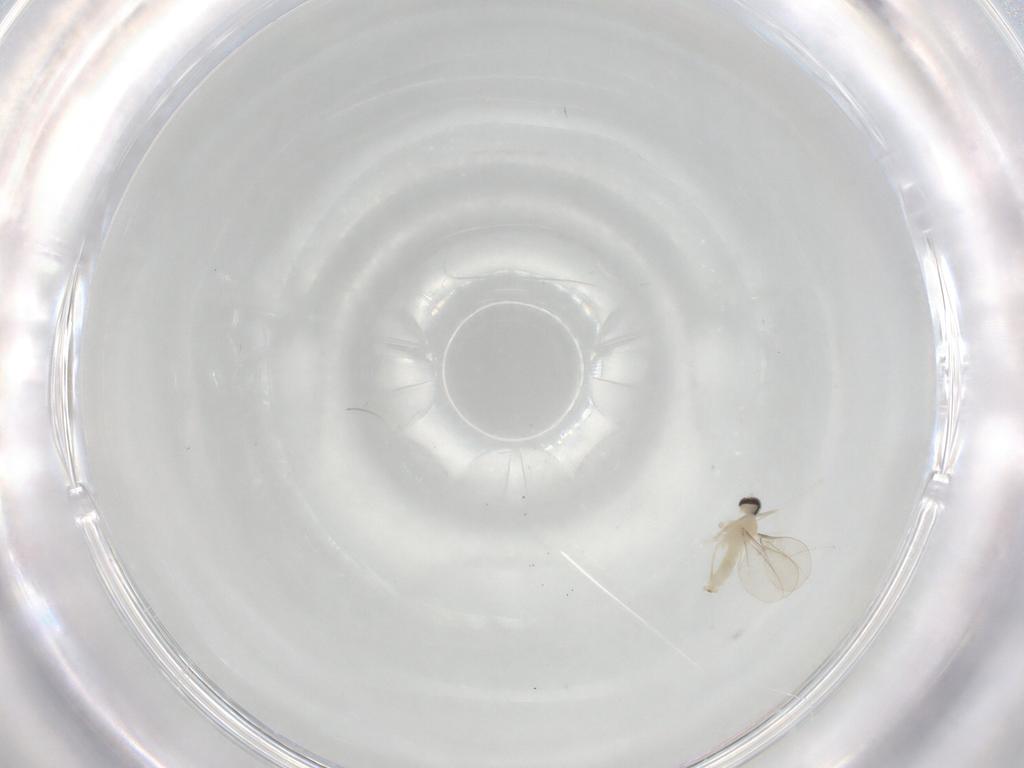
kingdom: Animalia
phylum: Arthropoda
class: Insecta
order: Diptera
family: Cecidomyiidae
